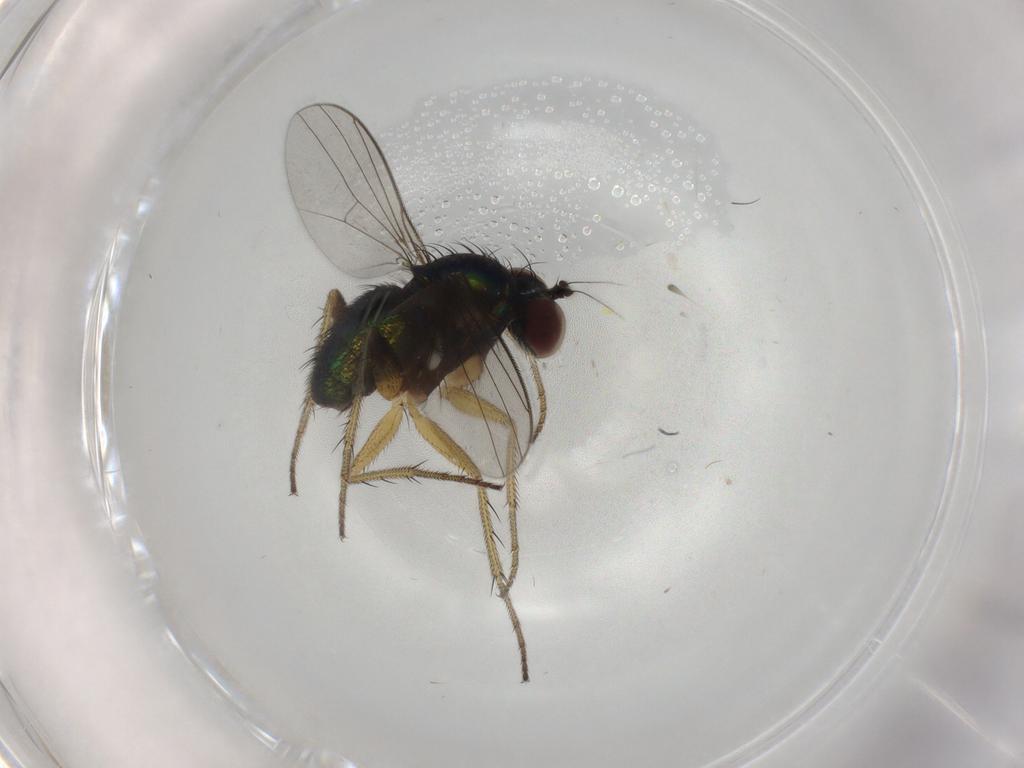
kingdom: Animalia
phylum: Arthropoda
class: Insecta
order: Diptera
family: Dolichopodidae
